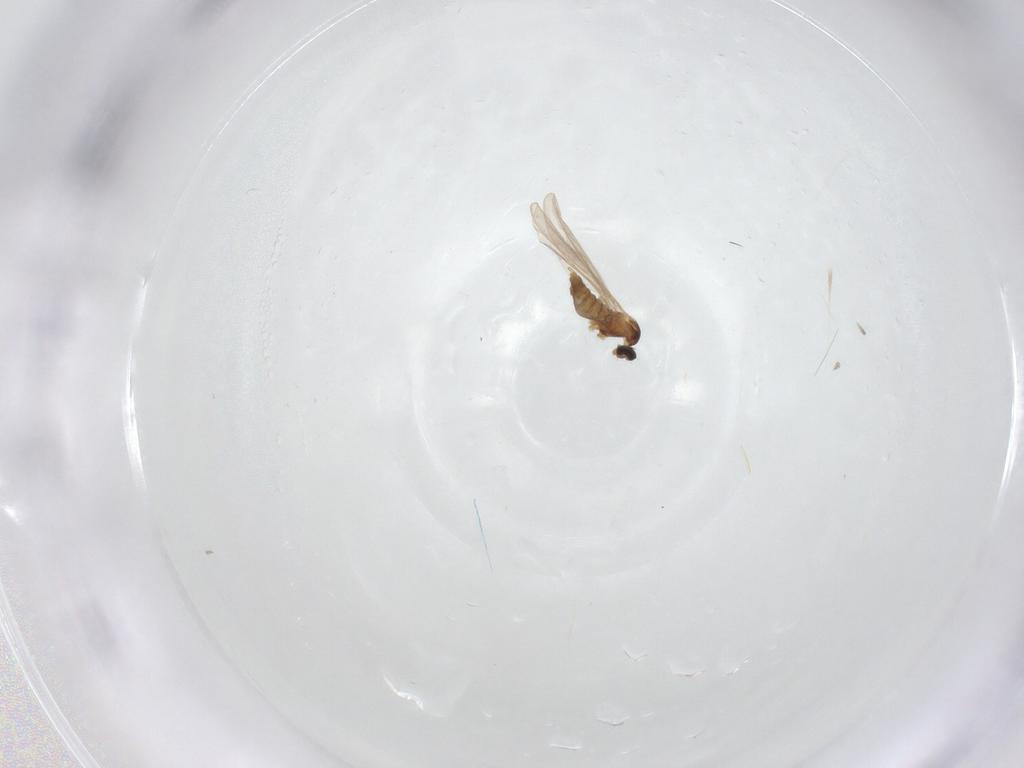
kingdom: Animalia
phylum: Arthropoda
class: Insecta
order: Diptera
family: Cecidomyiidae
